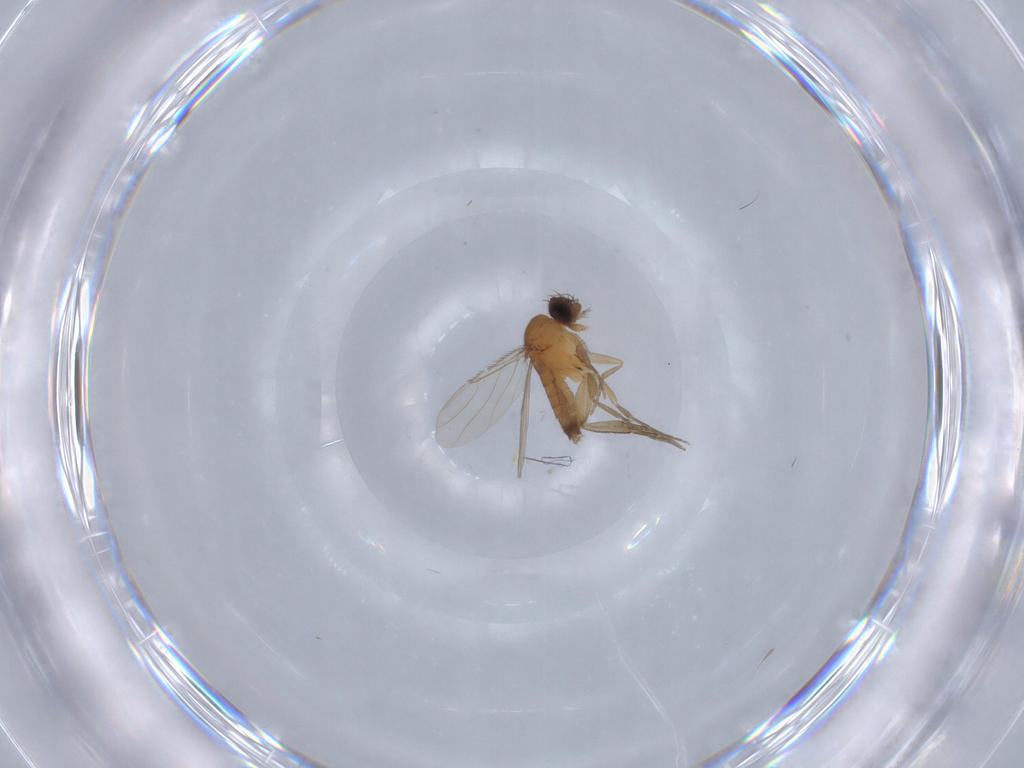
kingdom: Animalia
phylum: Arthropoda
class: Insecta
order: Diptera
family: Phoridae
